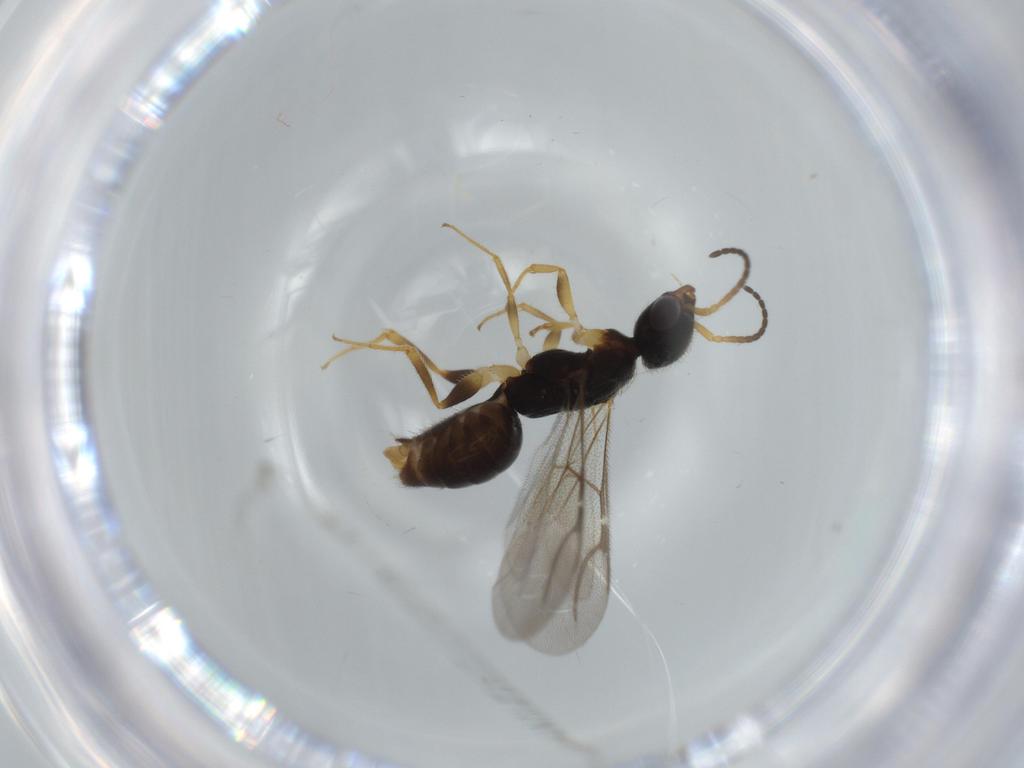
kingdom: Animalia
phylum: Arthropoda
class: Insecta
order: Hymenoptera
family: Bethylidae
